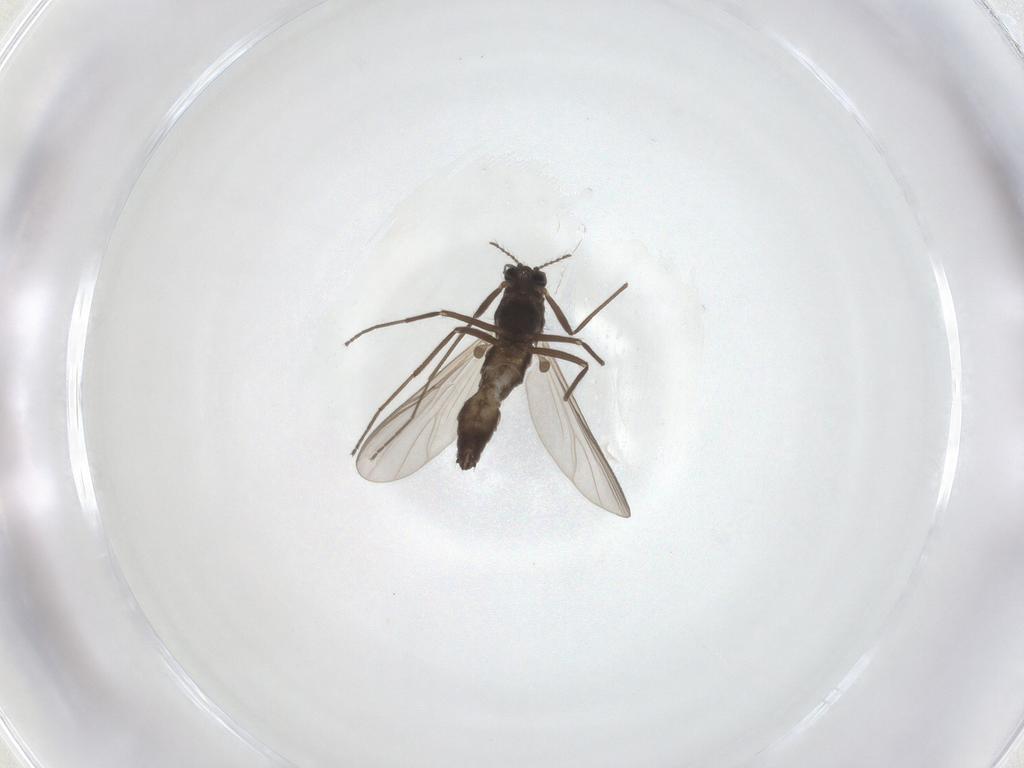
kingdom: Animalia
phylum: Arthropoda
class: Insecta
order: Diptera
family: Chironomidae
